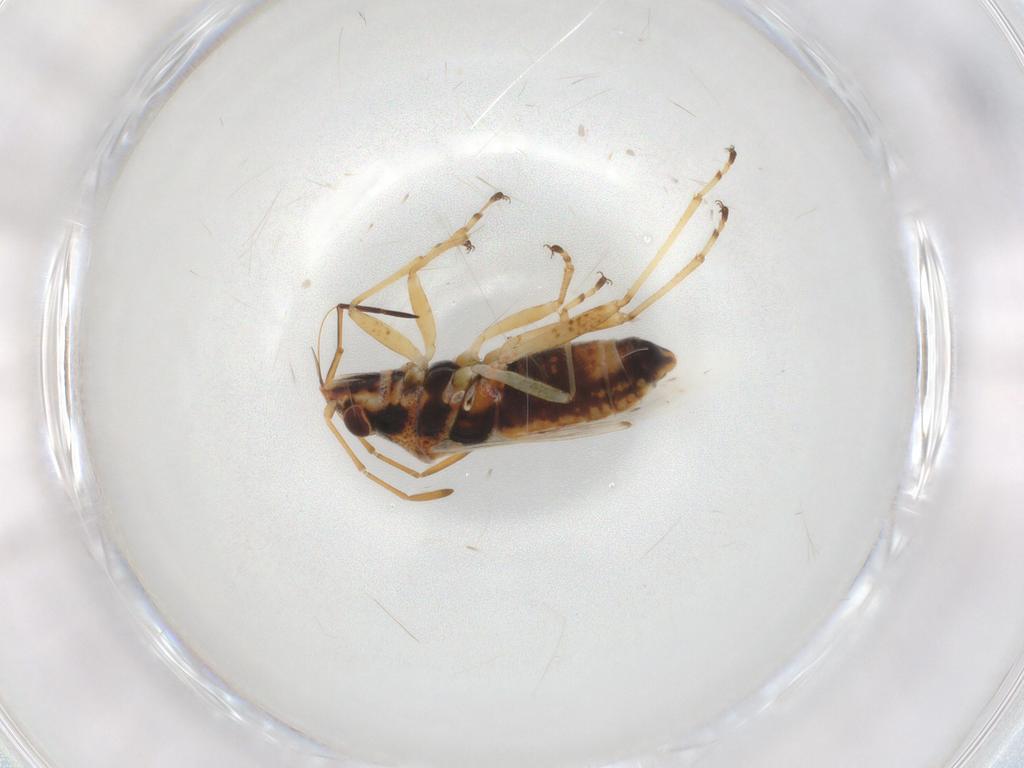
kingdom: Animalia
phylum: Arthropoda
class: Insecta
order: Hemiptera
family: Lygaeidae
